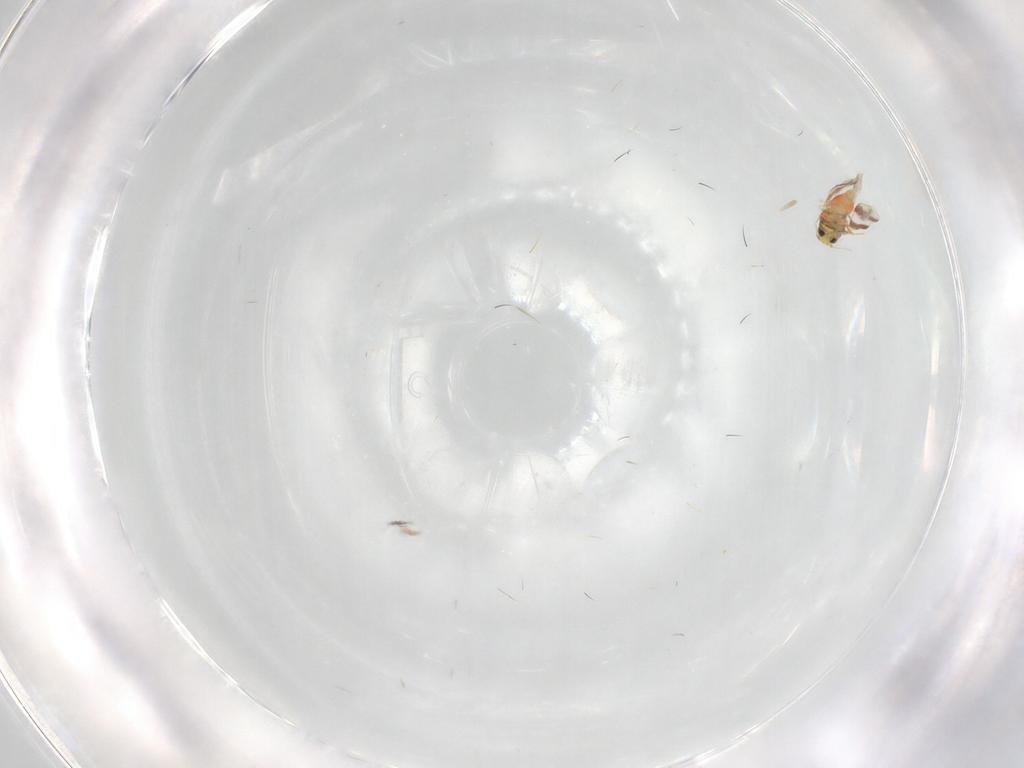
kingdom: Animalia
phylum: Arthropoda
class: Insecta
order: Hemiptera
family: Aleyrodidae
